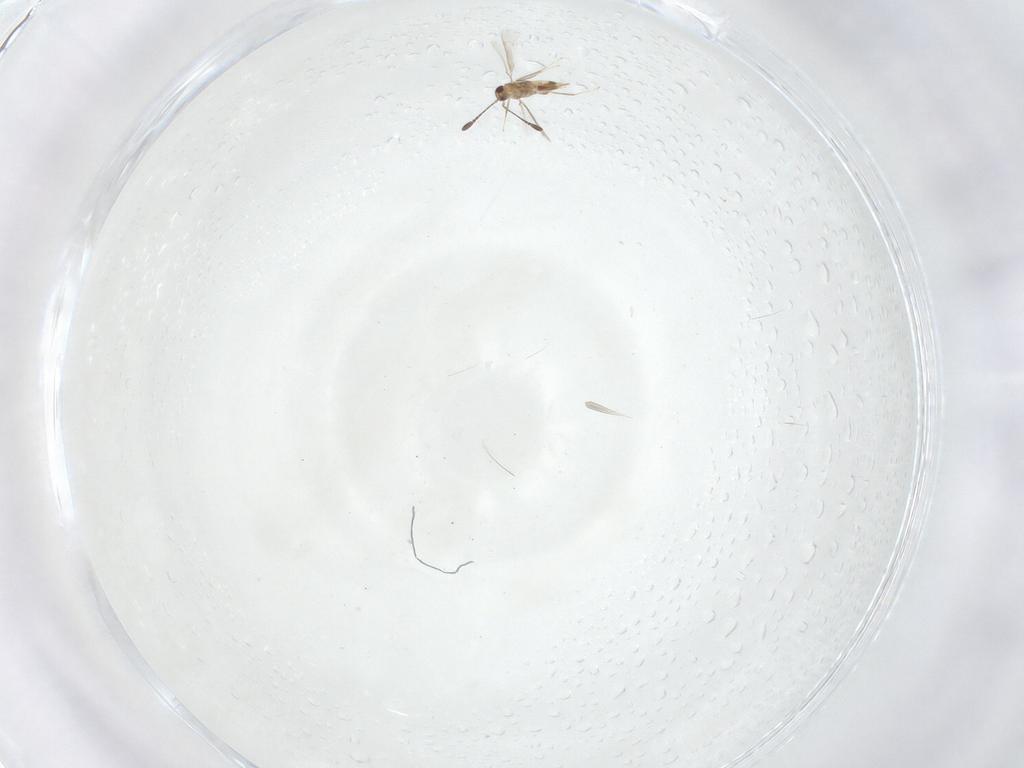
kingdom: Animalia
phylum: Arthropoda
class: Insecta
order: Hymenoptera
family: Mymaridae
